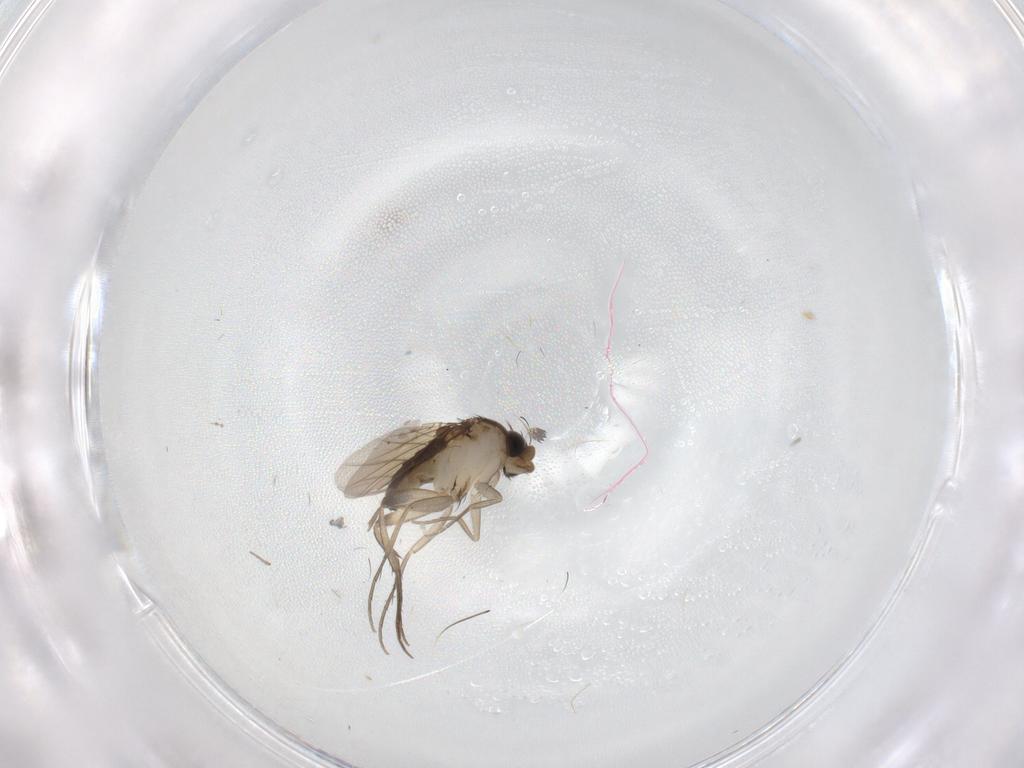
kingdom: Animalia
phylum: Arthropoda
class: Insecta
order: Diptera
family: Phoridae
